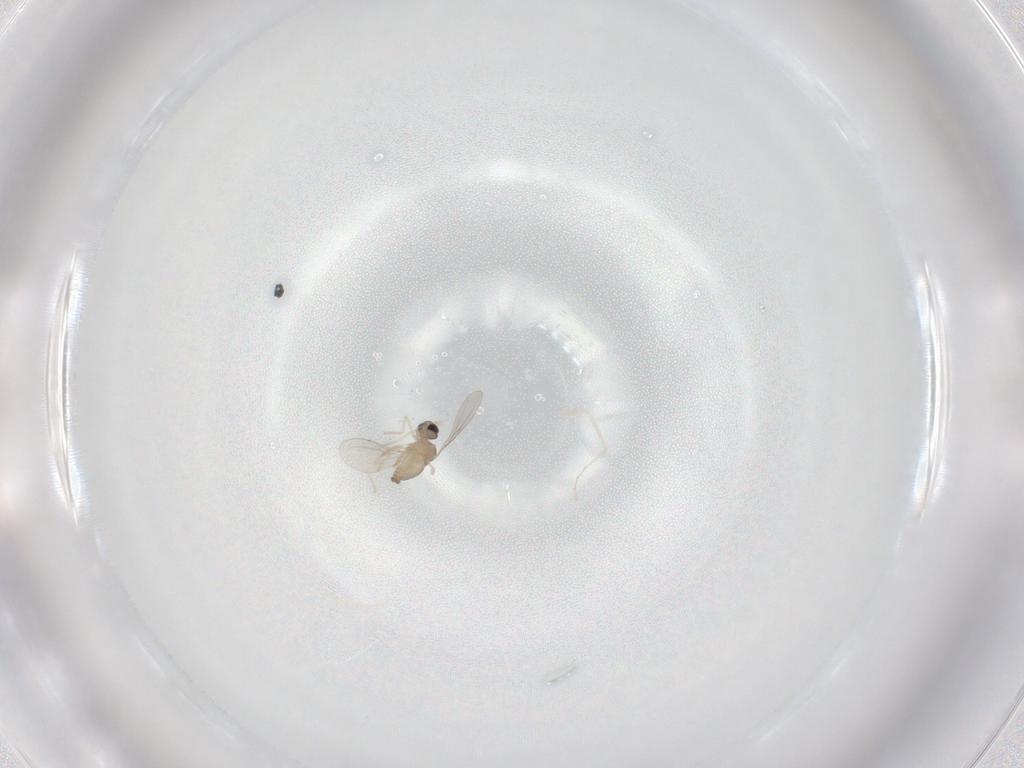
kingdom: Animalia
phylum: Arthropoda
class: Insecta
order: Diptera
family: Cecidomyiidae
